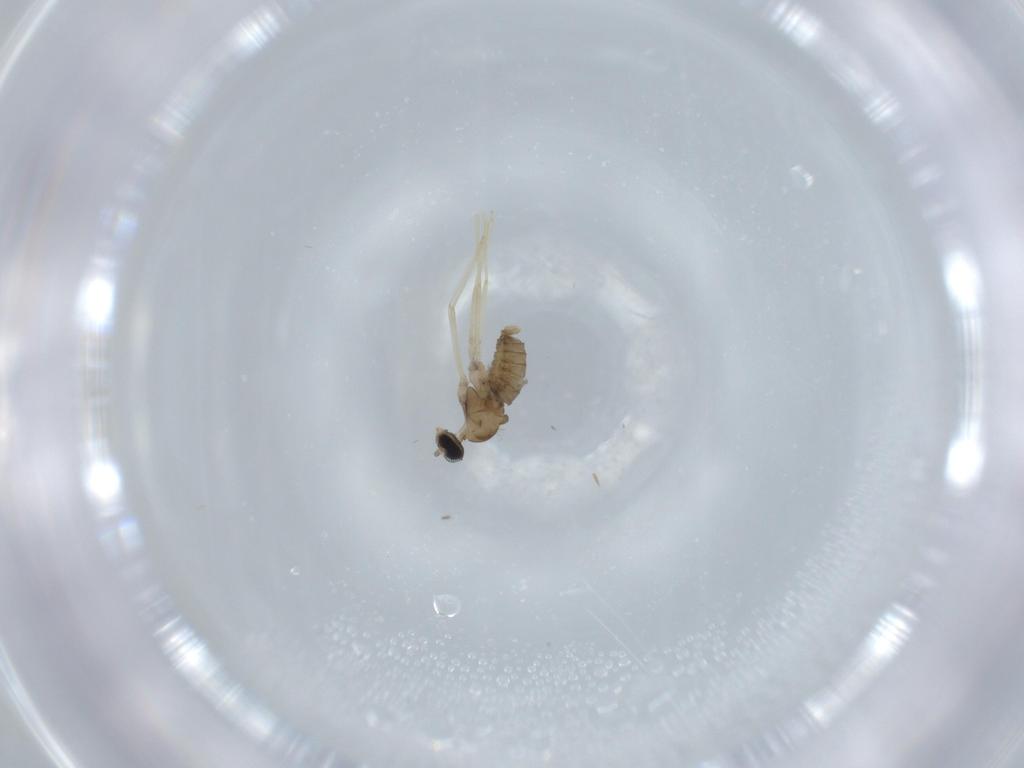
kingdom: Animalia
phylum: Arthropoda
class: Insecta
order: Diptera
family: Cecidomyiidae
